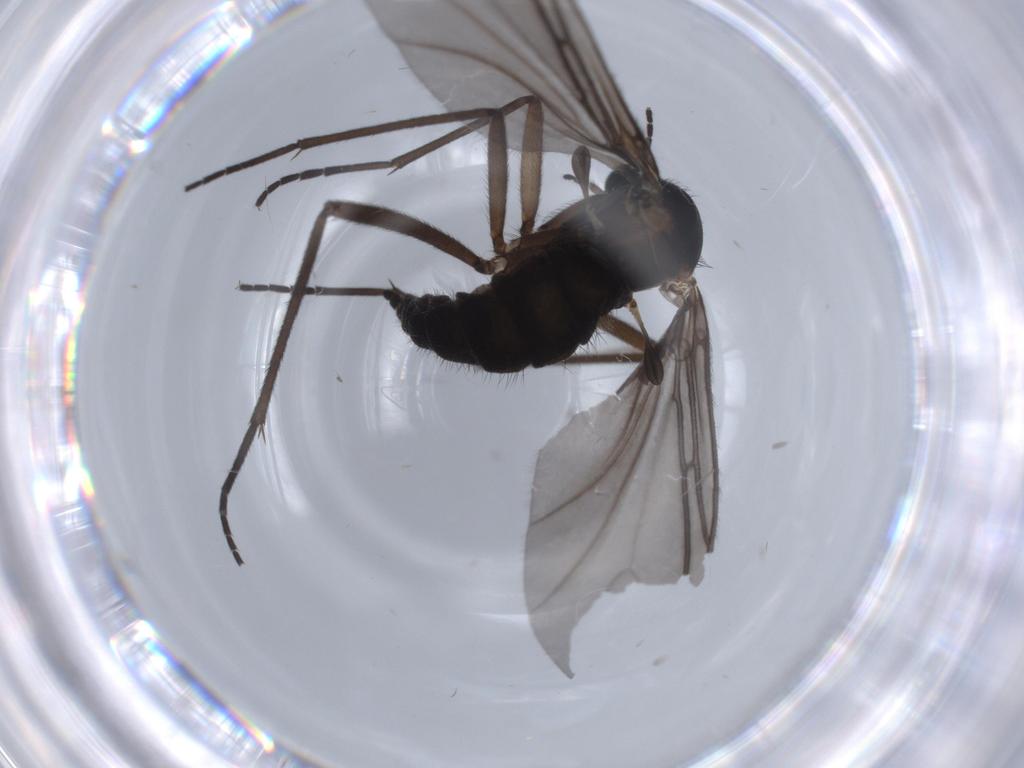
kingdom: Animalia
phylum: Arthropoda
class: Insecta
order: Diptera
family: Sciaridae
